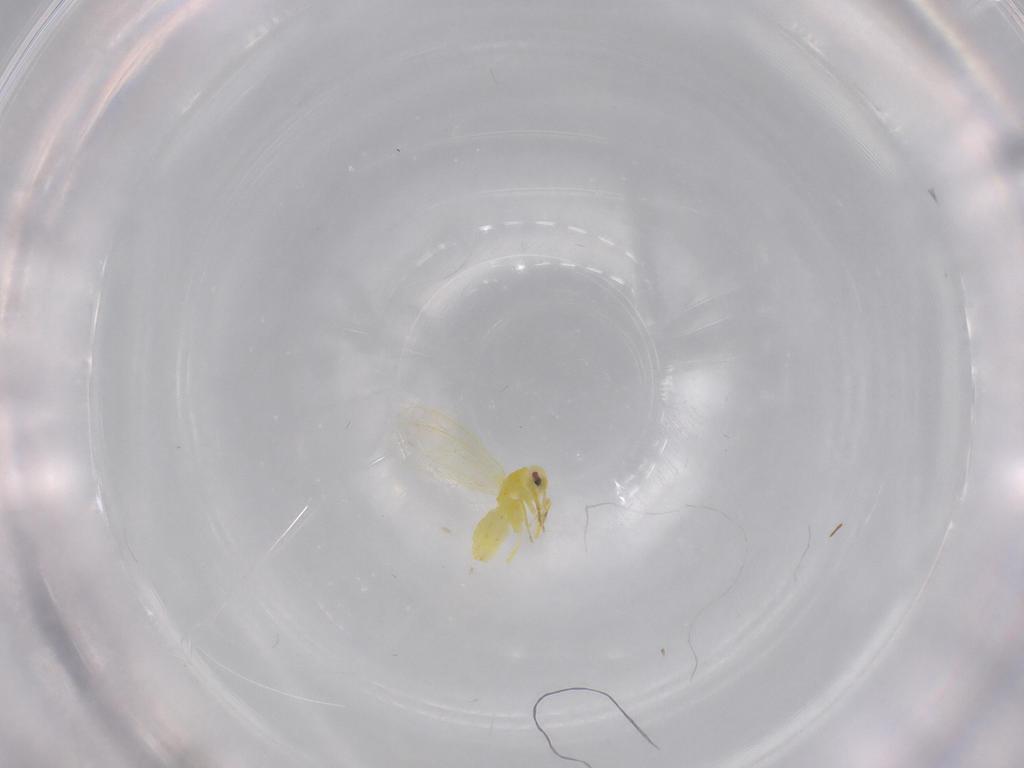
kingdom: Animalia
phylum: Arthropoda
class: Insecta
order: Hemiptera
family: Aleyrodidae
